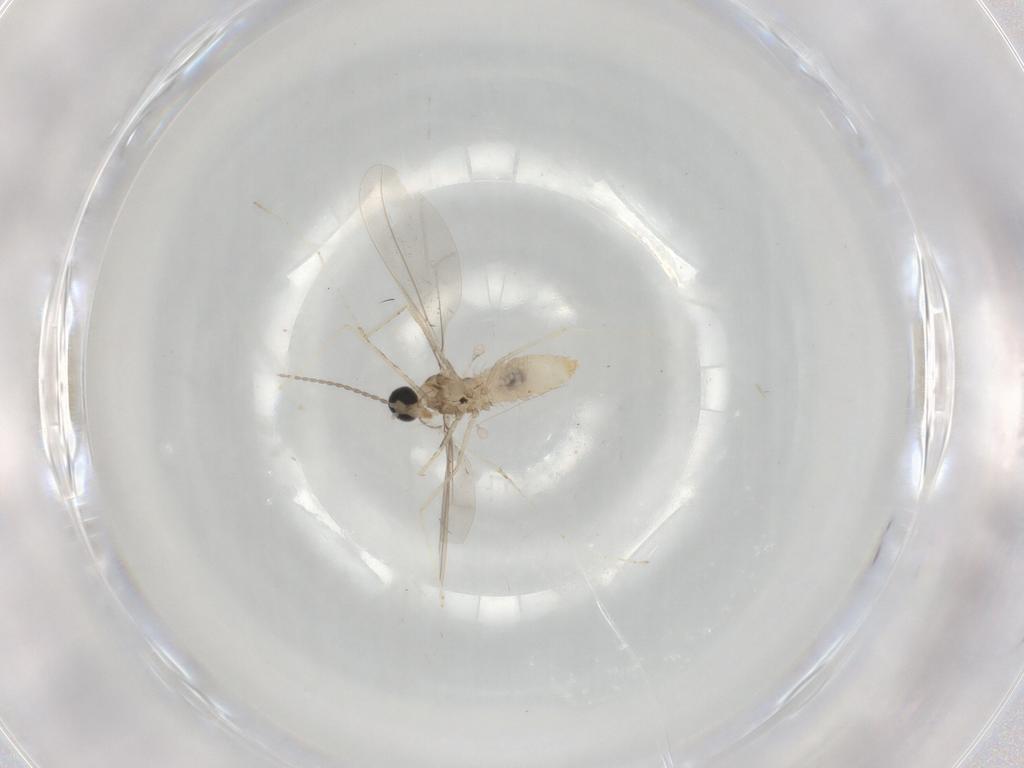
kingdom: Animalia
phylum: Arthropoda
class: Insecta
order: Diptera
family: Cecidomyiidae
